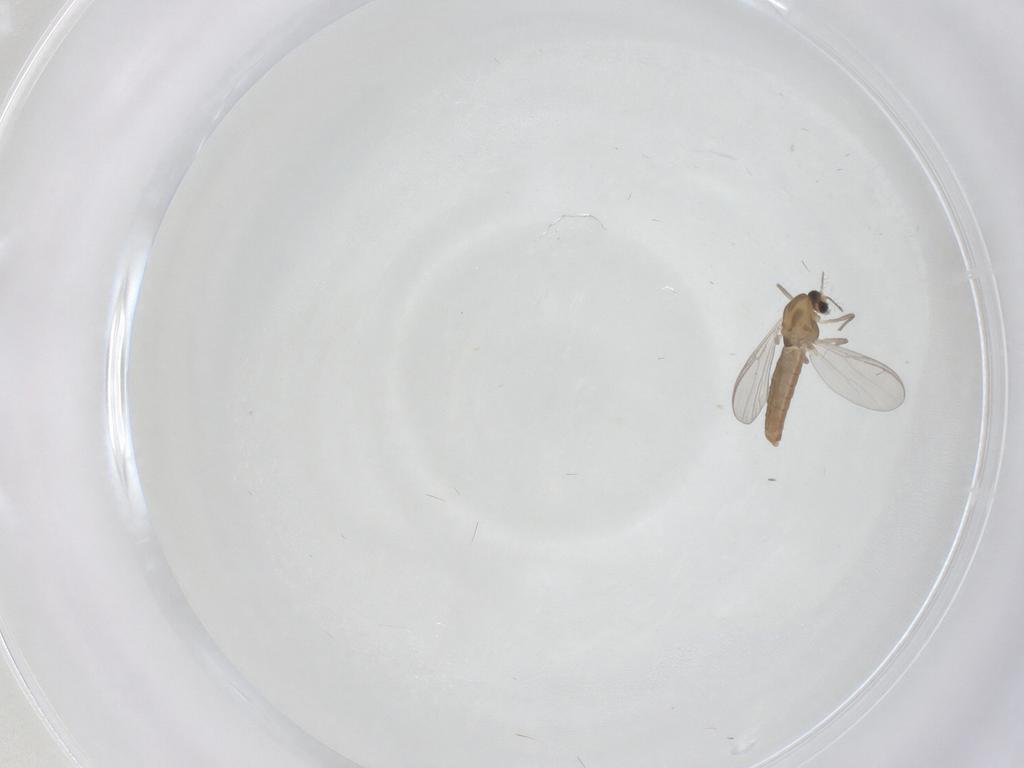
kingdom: Animalia
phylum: Arthropoda
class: Insecta
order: Diptera
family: Chironomidae
